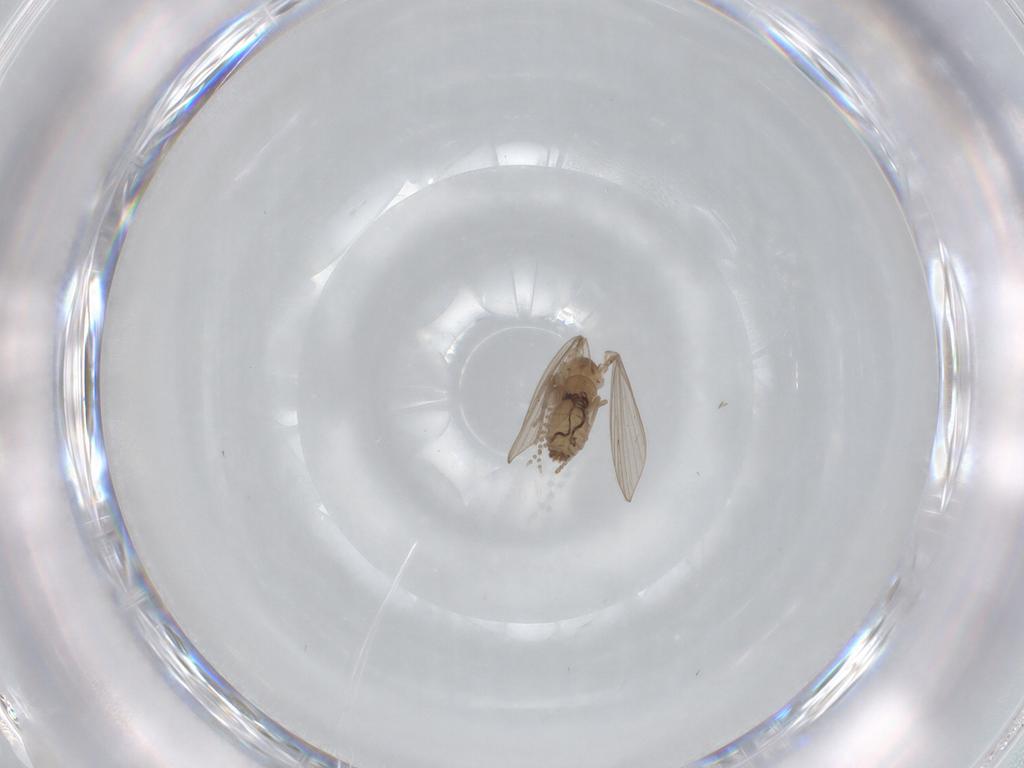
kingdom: Animalia
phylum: Arthropoda
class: Insecta
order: Diptera
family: Psychodidae
